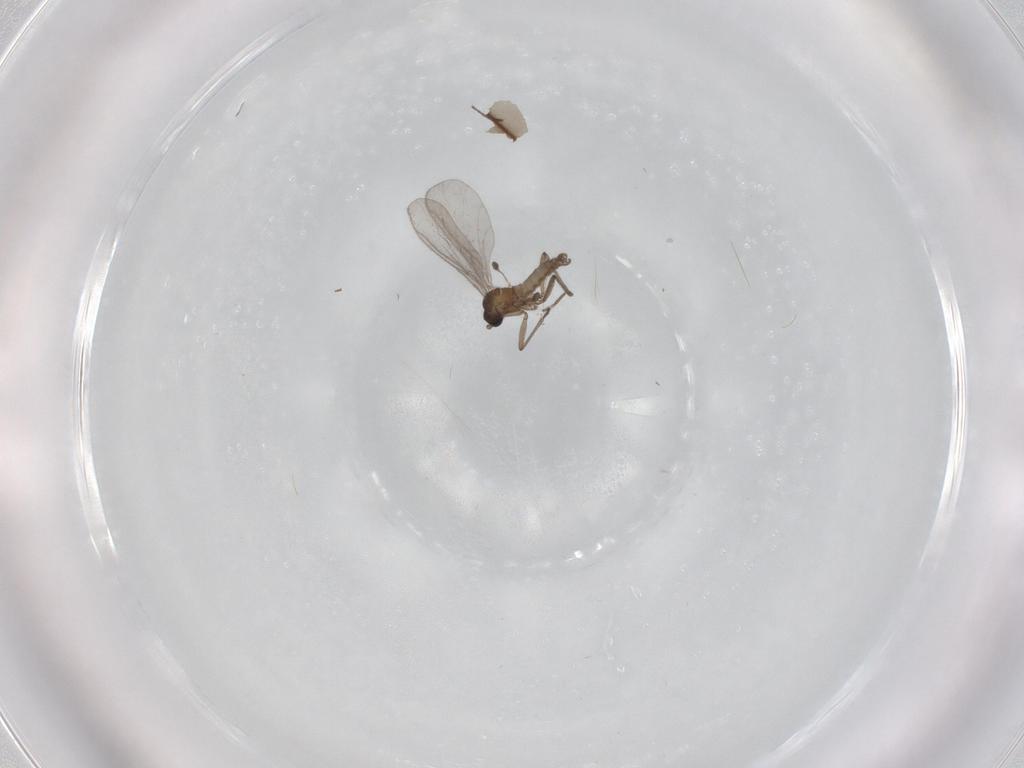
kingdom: Animalia
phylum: Arthropoda
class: Insecta
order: Diptera
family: Sciaridae
